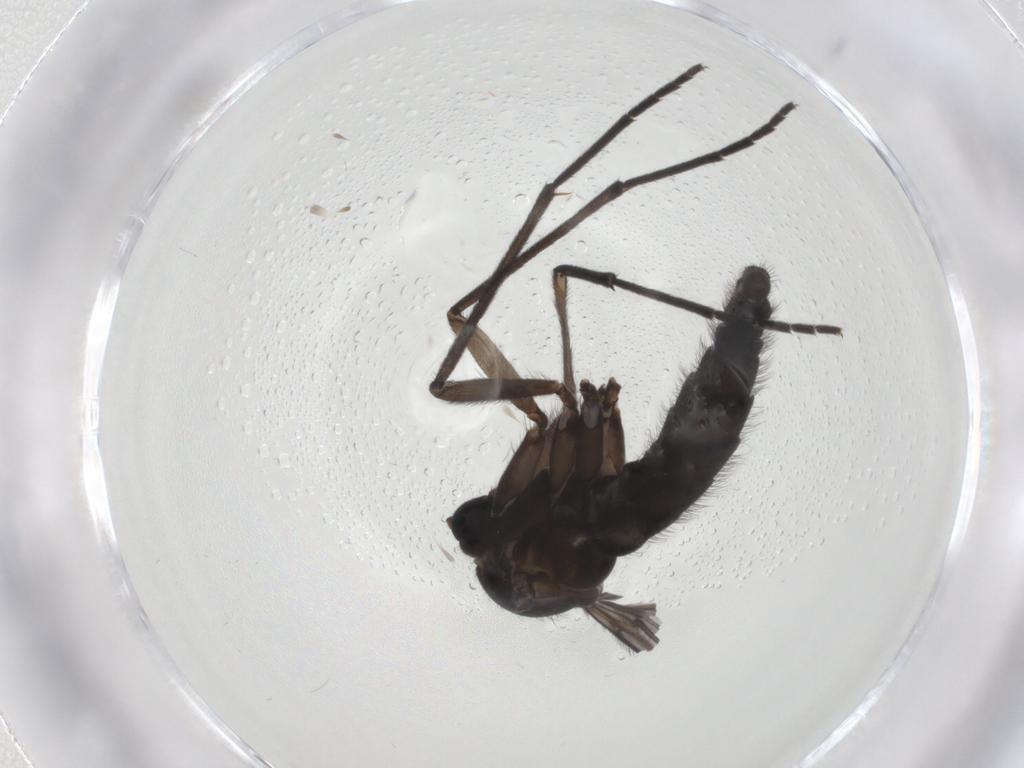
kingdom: Animalia
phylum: Arthropoda
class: Insecta
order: Diptera
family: Sciaridae
